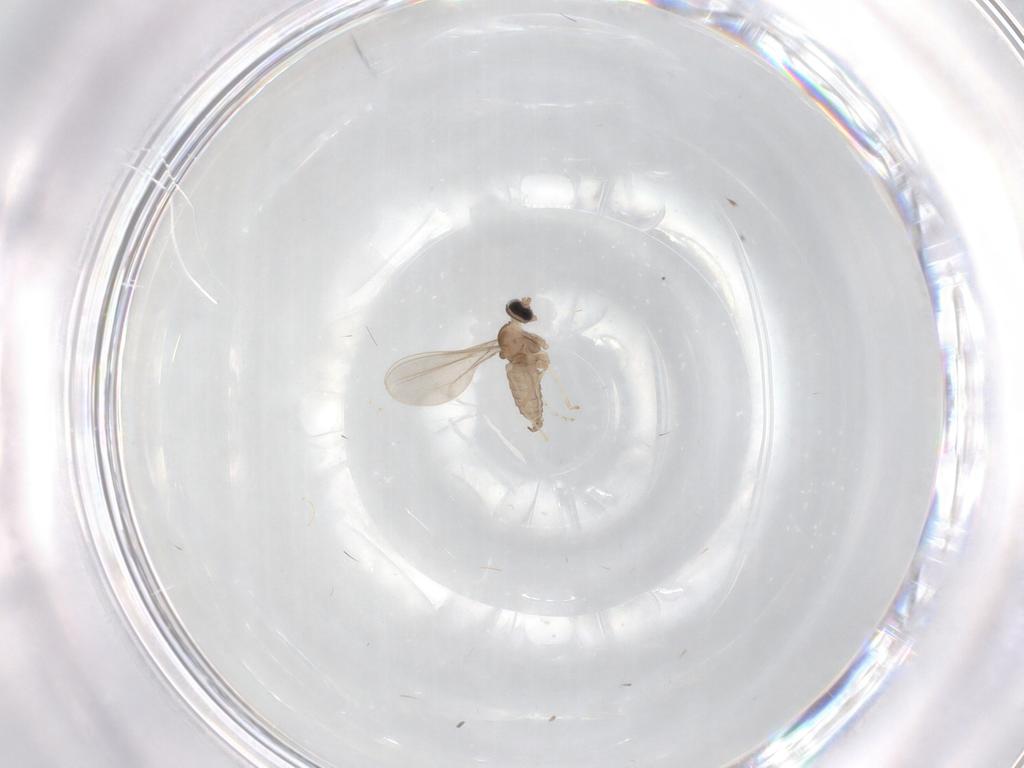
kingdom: Animalia
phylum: Arthropoda
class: Insecta
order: Diptera
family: Cecidomyiidae
